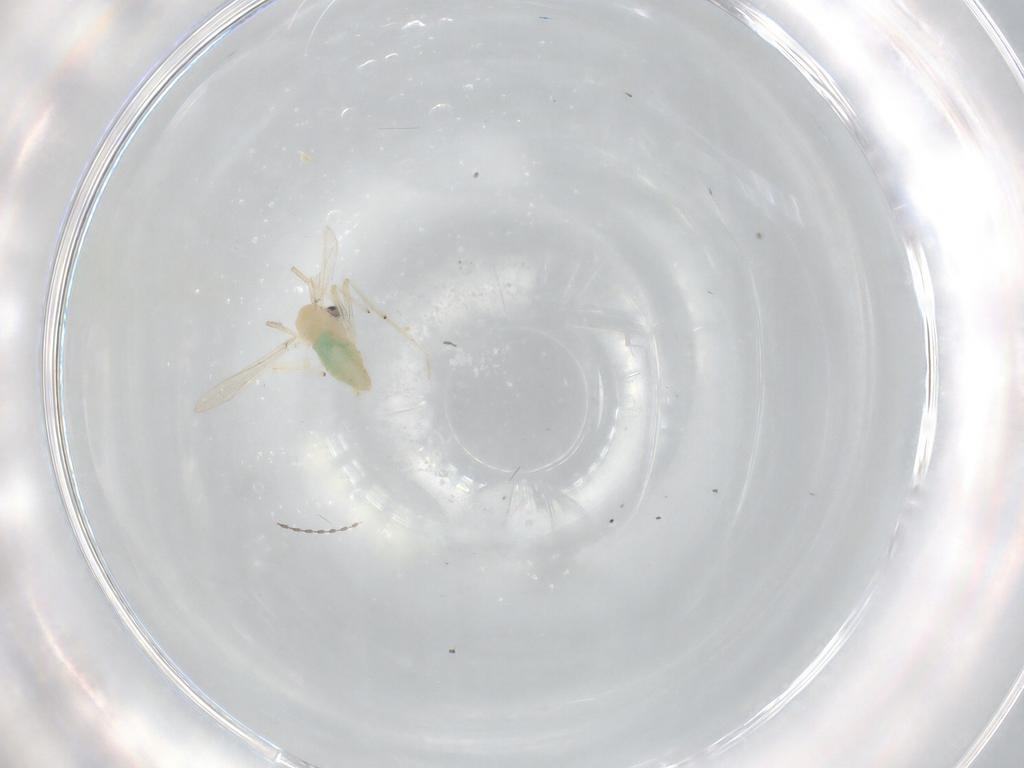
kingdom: Animalia
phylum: Arthropoda
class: Insecta
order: Diptera
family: Chironomidae
